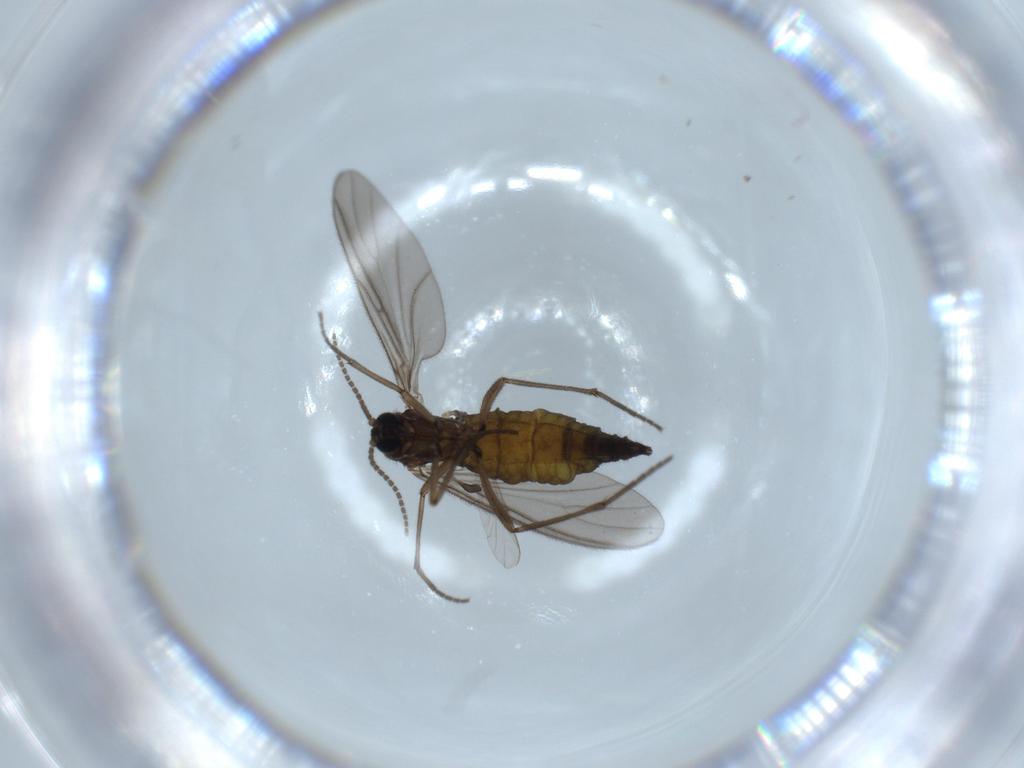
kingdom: Animalia
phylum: Arthropoda
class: Insecta
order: Diptera
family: Sciaridae
